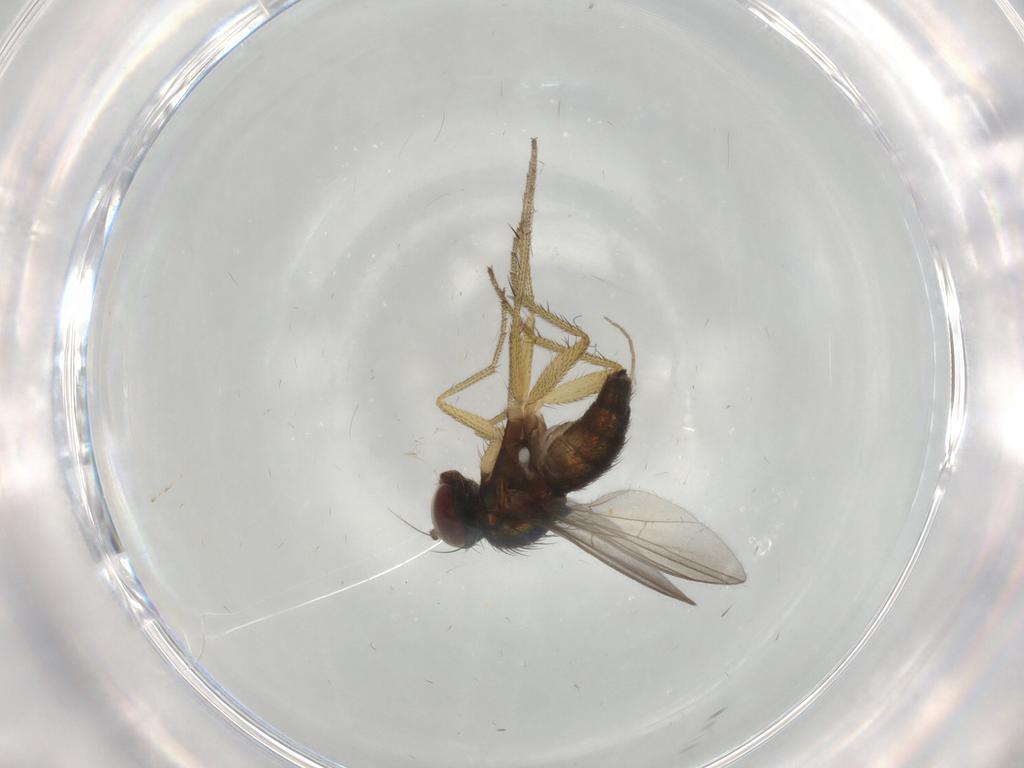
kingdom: Animalia
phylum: Arthropoda
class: Insecta
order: Diptera
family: Dolichopodidae
